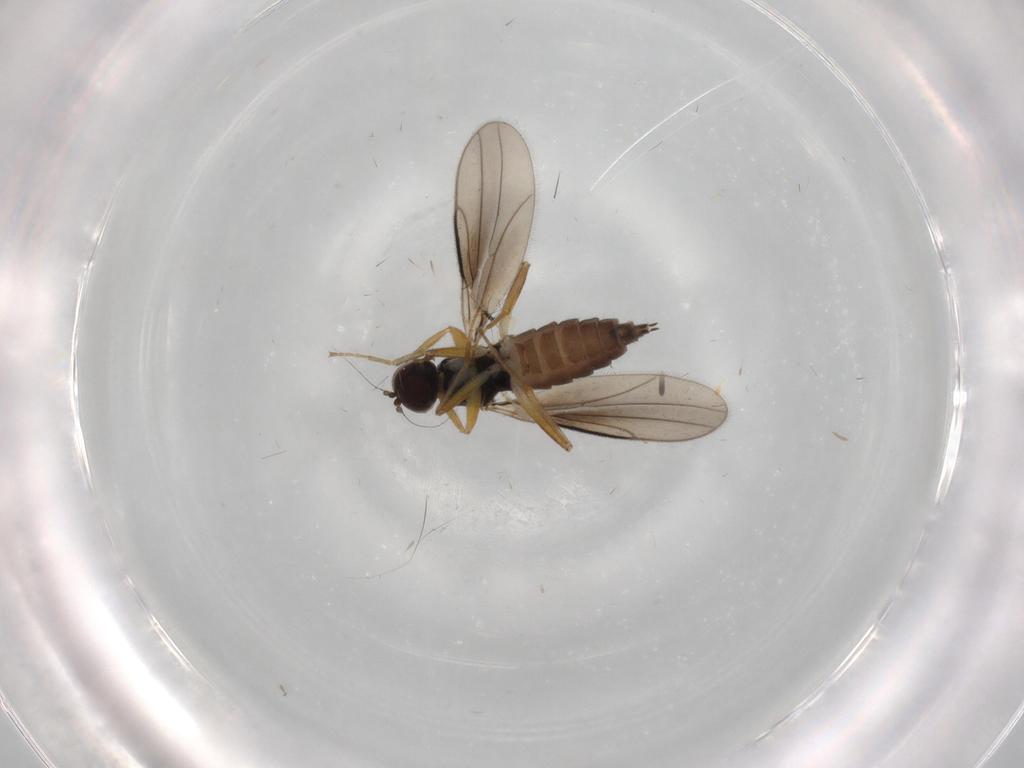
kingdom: Animalia
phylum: Arthropoda
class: Insecta
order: Diptera
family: Hybotidae
